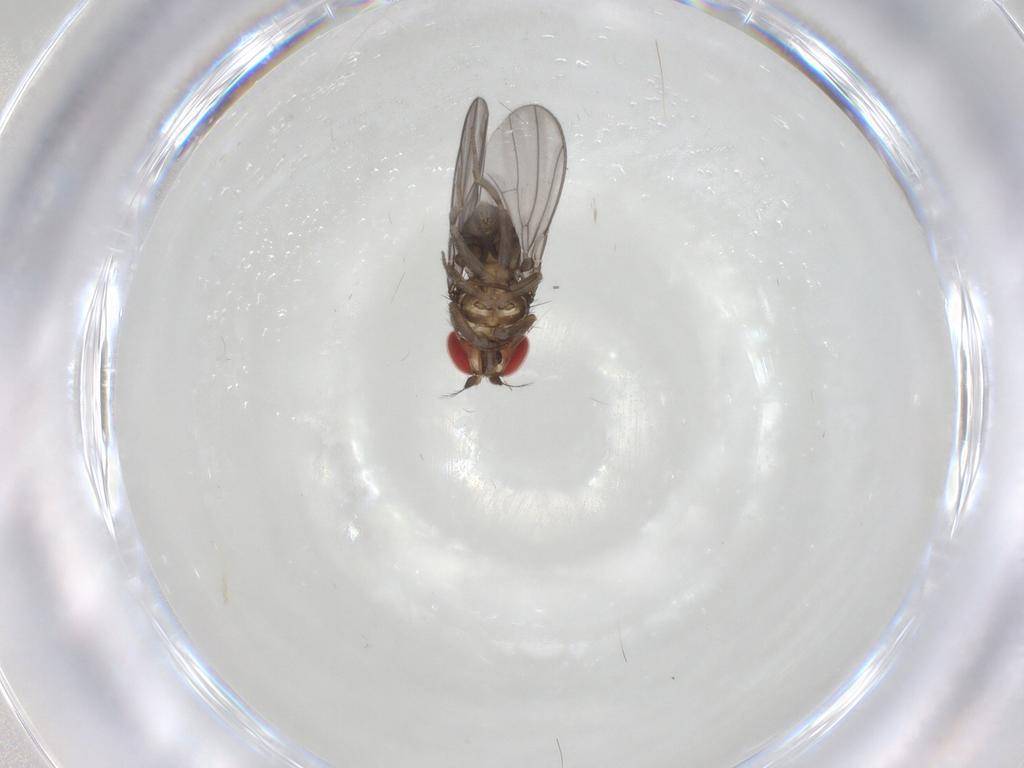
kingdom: Animalia
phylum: Arthropoda
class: Insecta
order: Diptera
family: Drosophilidae
